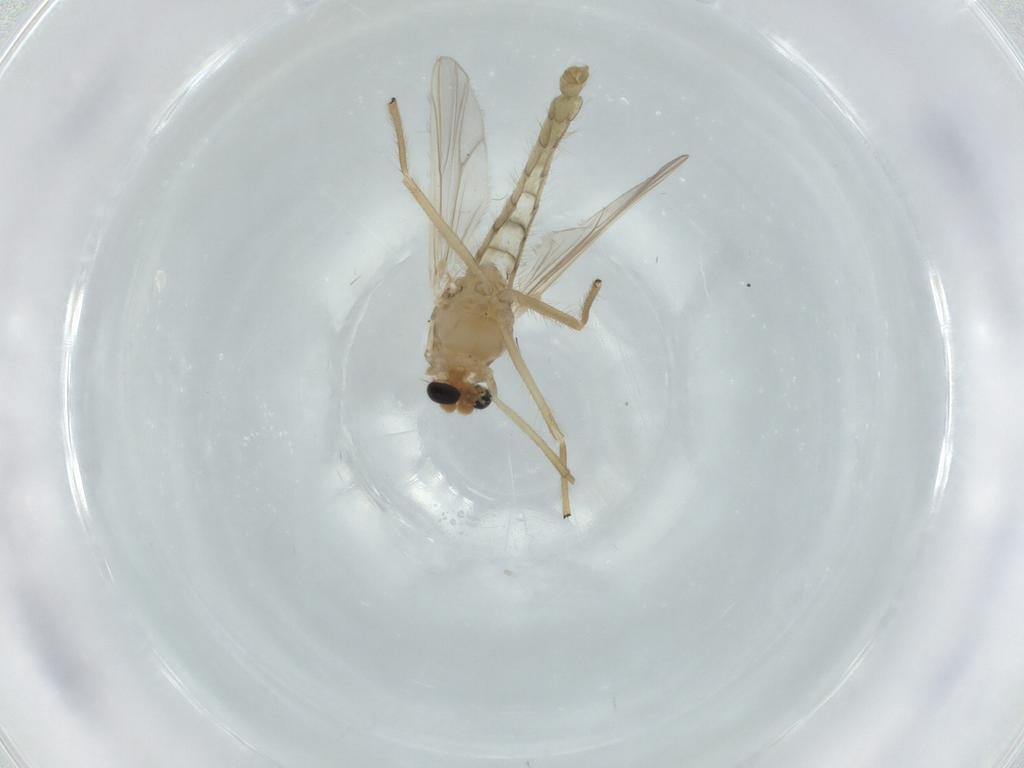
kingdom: Animalia
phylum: Arthropoda
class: Insecta
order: Diptera
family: Chironomidae
